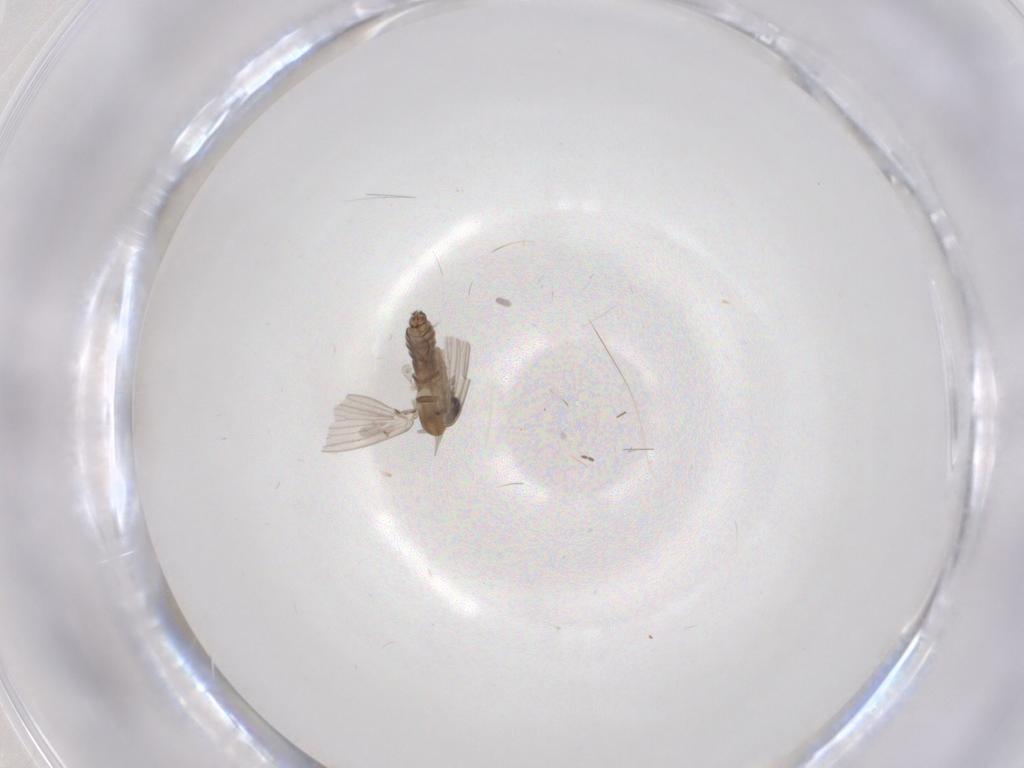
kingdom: Animalia
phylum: Arthropoda
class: Insecta
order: Diptera
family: Cecidomyiidae
